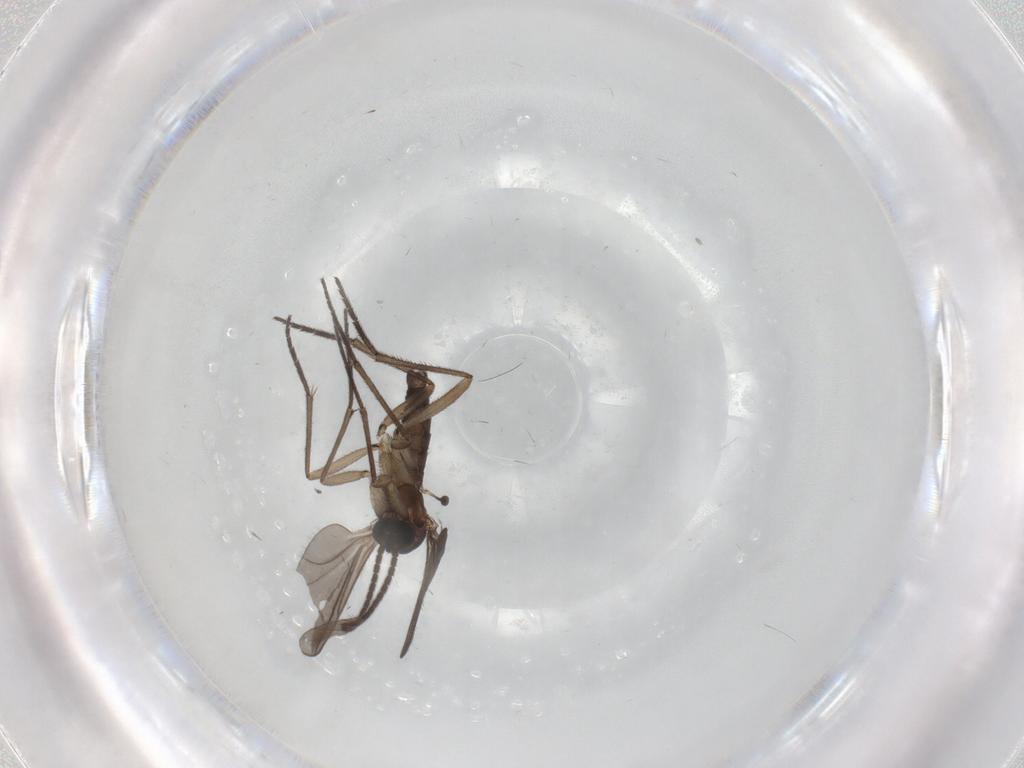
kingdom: Animalia
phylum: Arthropoda
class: Insecta
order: Diptera
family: Sciaridae
